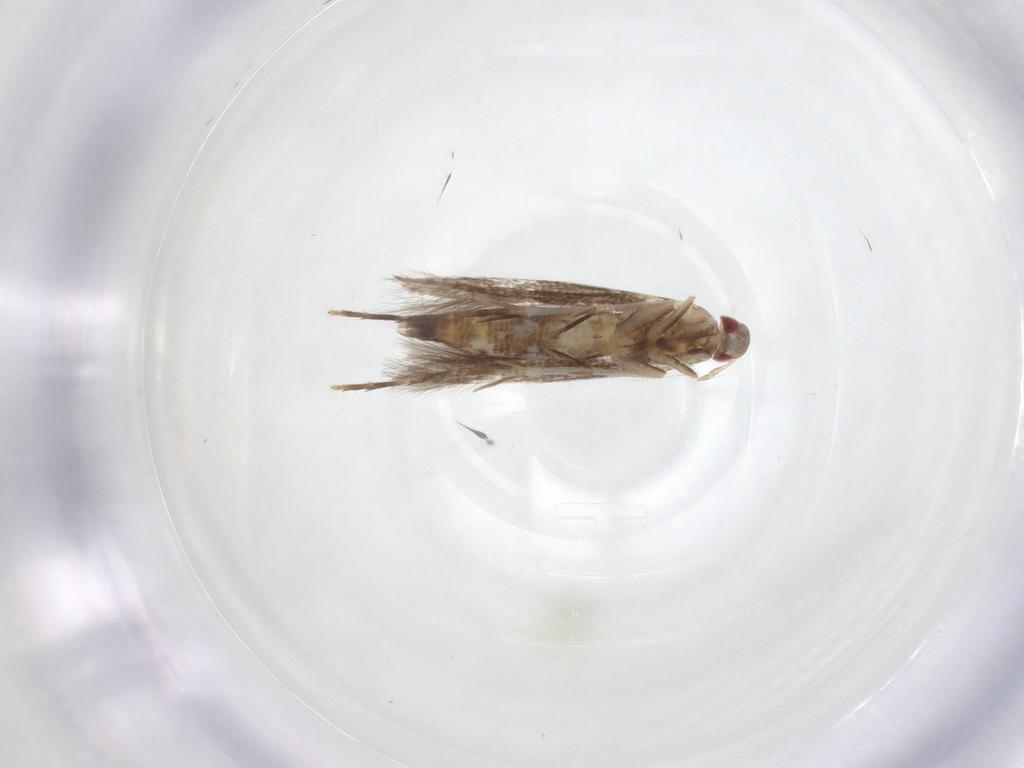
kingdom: Animalia
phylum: Arthropoda
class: Insecta
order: Lepidoptera
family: Cosmopterigidae
